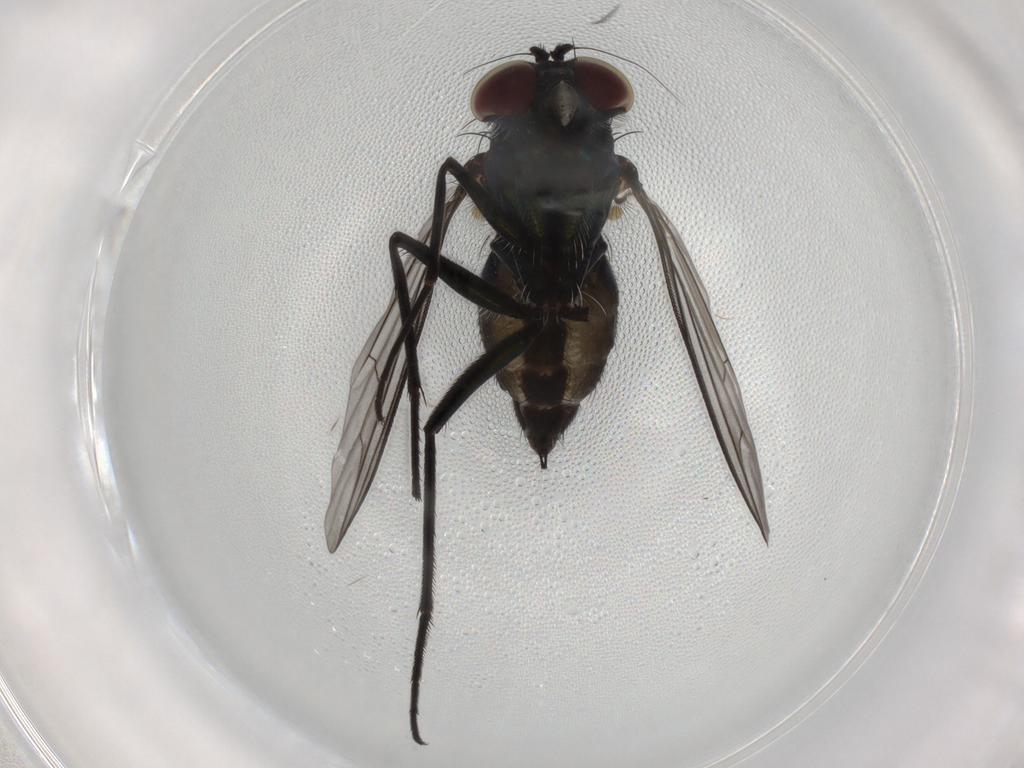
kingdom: Animalia
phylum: Arthropoda
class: Insecta
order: Diptera
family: Dolichopodidae
